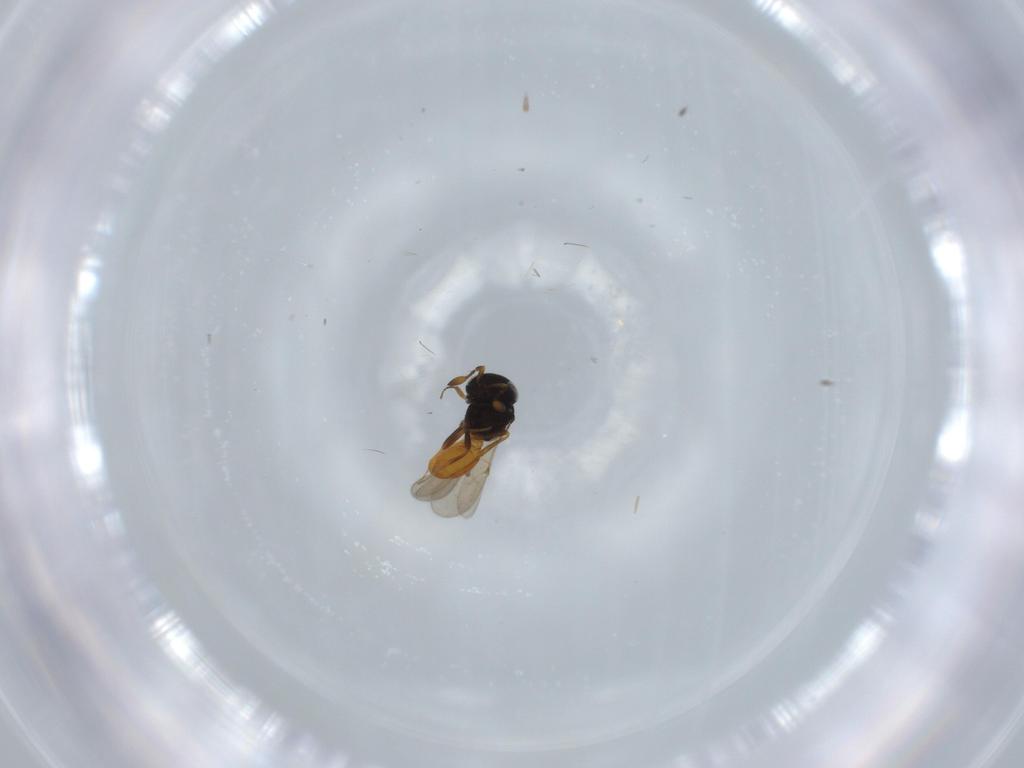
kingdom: Animalia
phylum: Arthropoda
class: Insecta
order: Hymenoptera
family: Scelionidae
